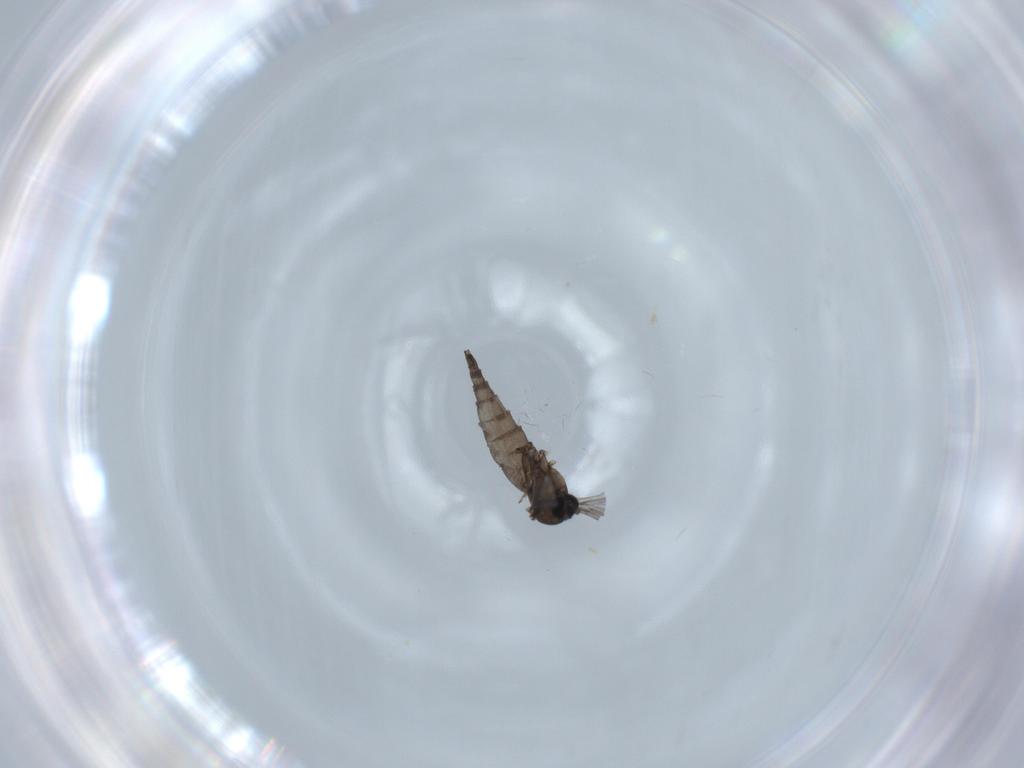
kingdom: Animalia
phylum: Arthropoda
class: Insecta
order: Diptera
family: Sciaridae
